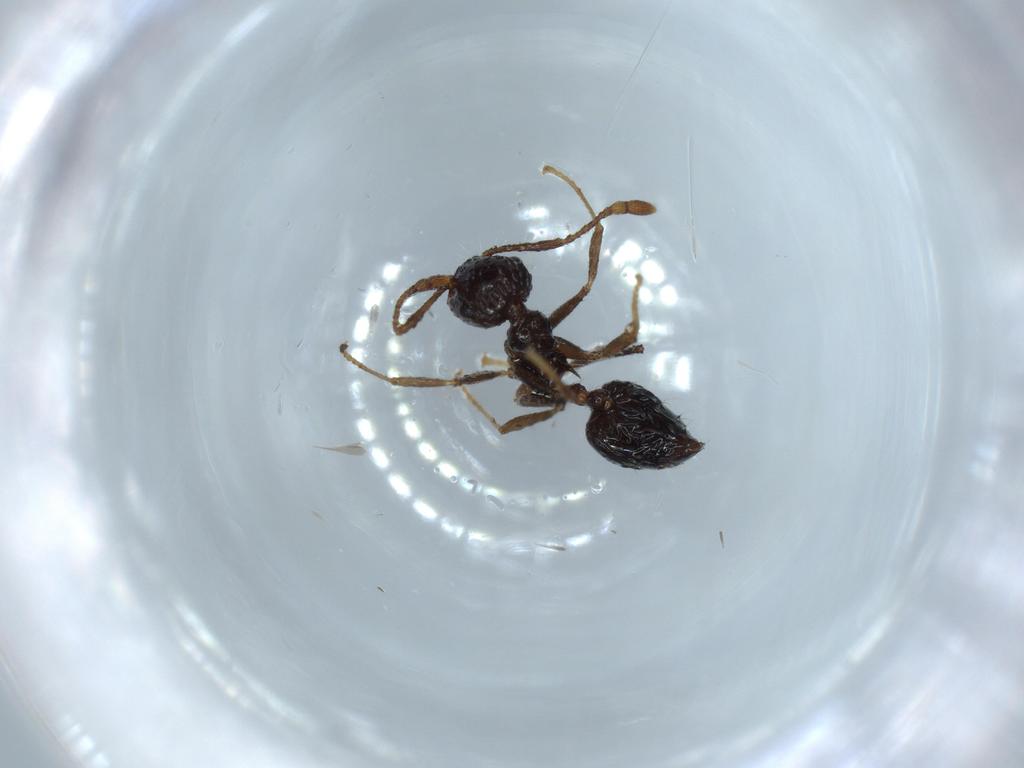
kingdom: Animalia
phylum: Arthropoda
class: Insecta
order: Hymenoptera
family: Formicidae
